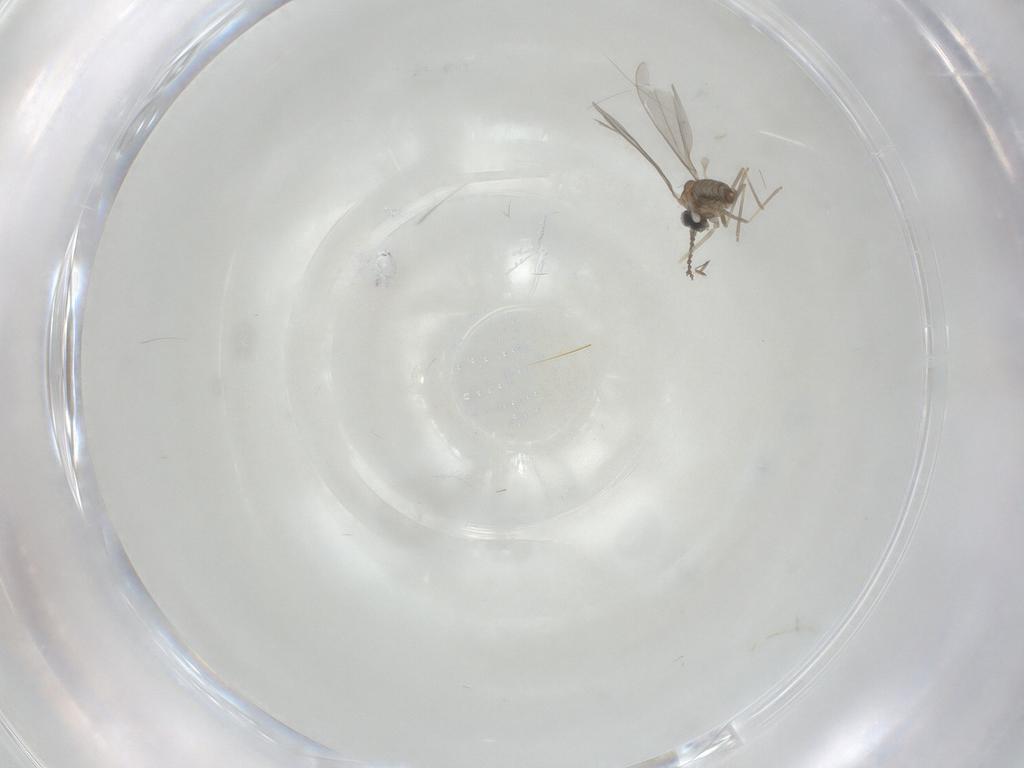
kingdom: Animalia
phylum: Arthropoda
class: Insecta
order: Diptera
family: Cecidomyiidae
